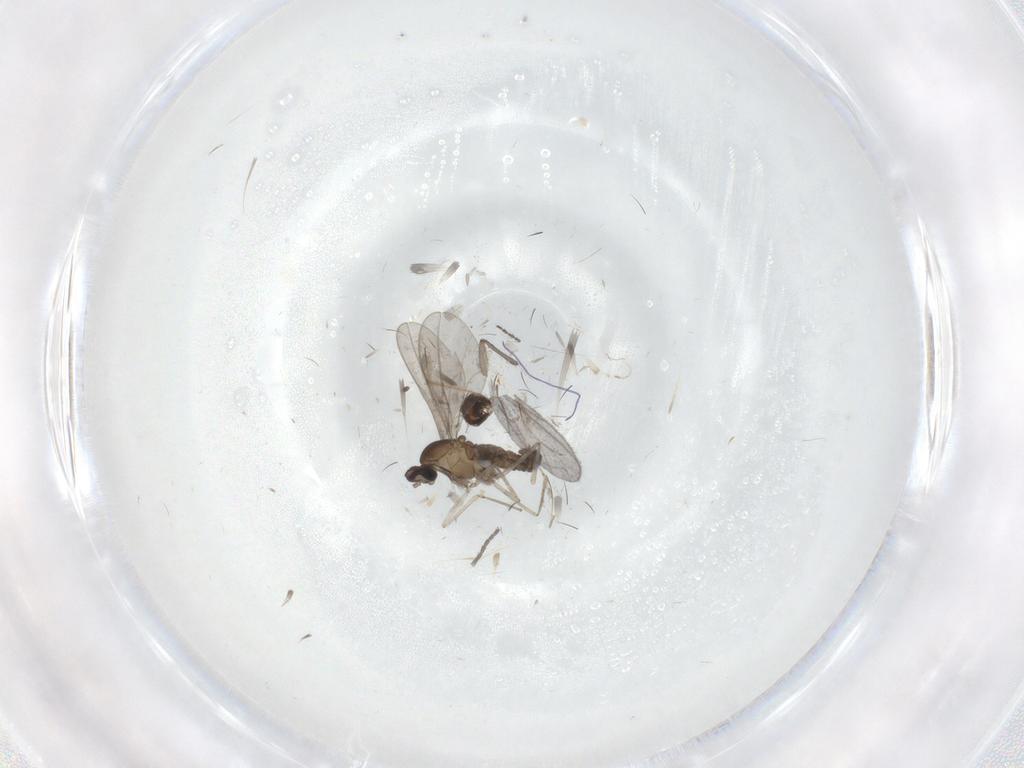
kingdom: Animalia
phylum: Arthropoda
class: Insecta
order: Diptera
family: Cecidomyiidae
